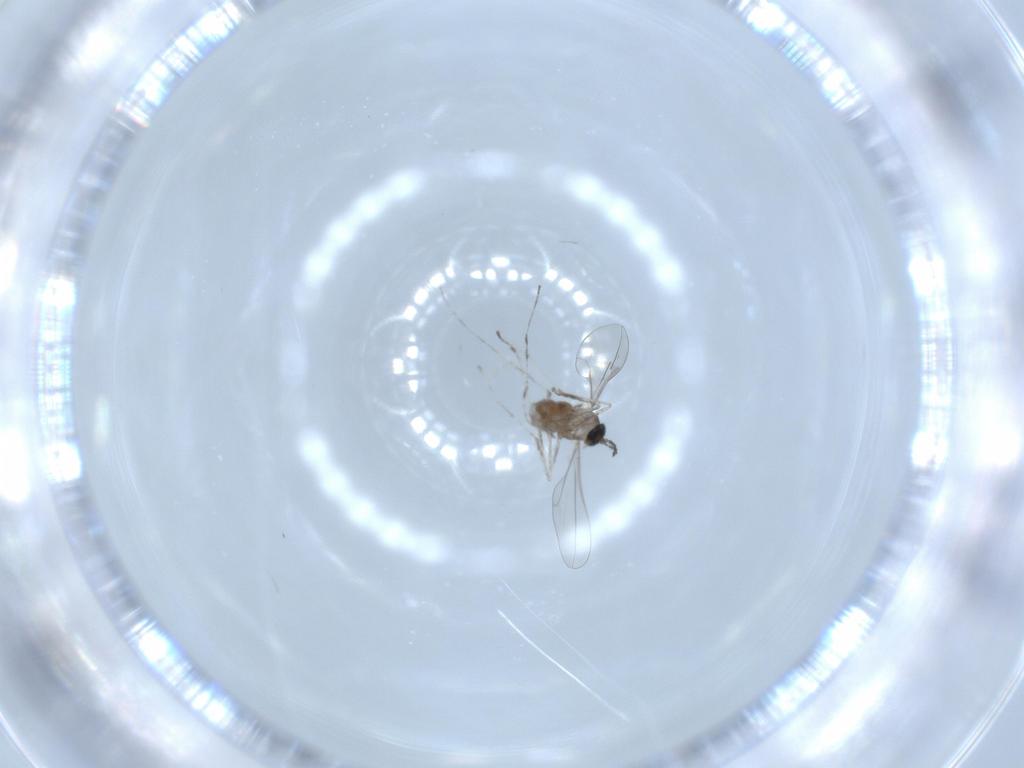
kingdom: Animalia
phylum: Arthropoda
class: Insecta
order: Diptera
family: Cecidomyiidae
